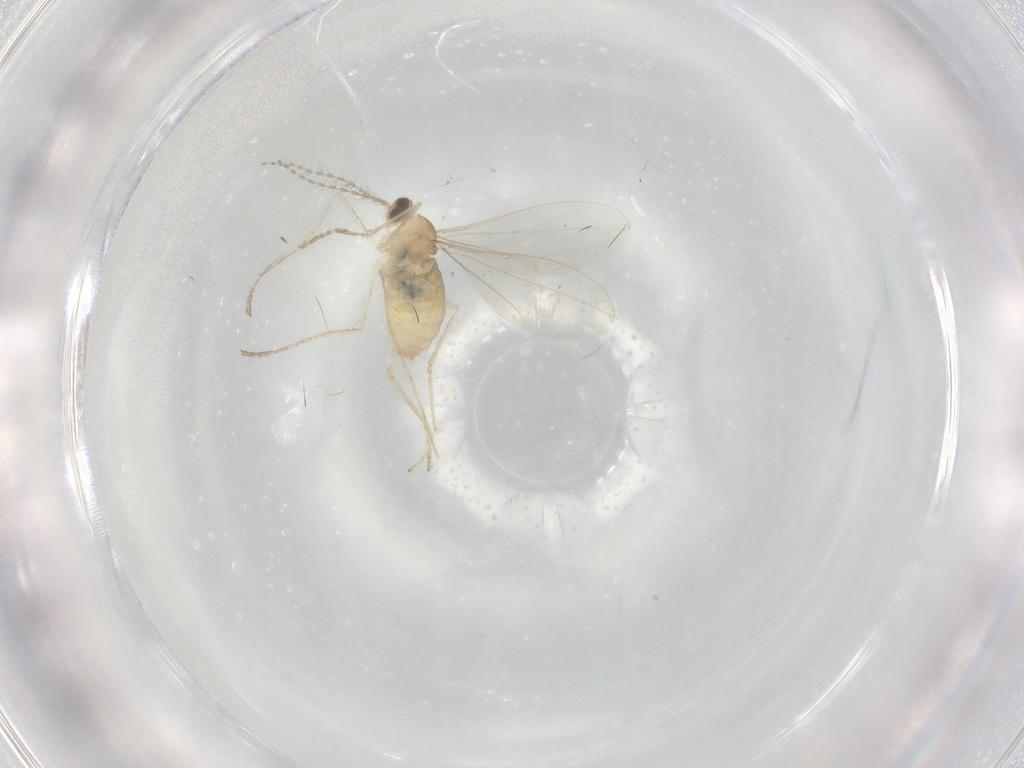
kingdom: Animalia
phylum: Arthropoda
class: Insecta
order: Diptera
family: Cecidomyiidae
